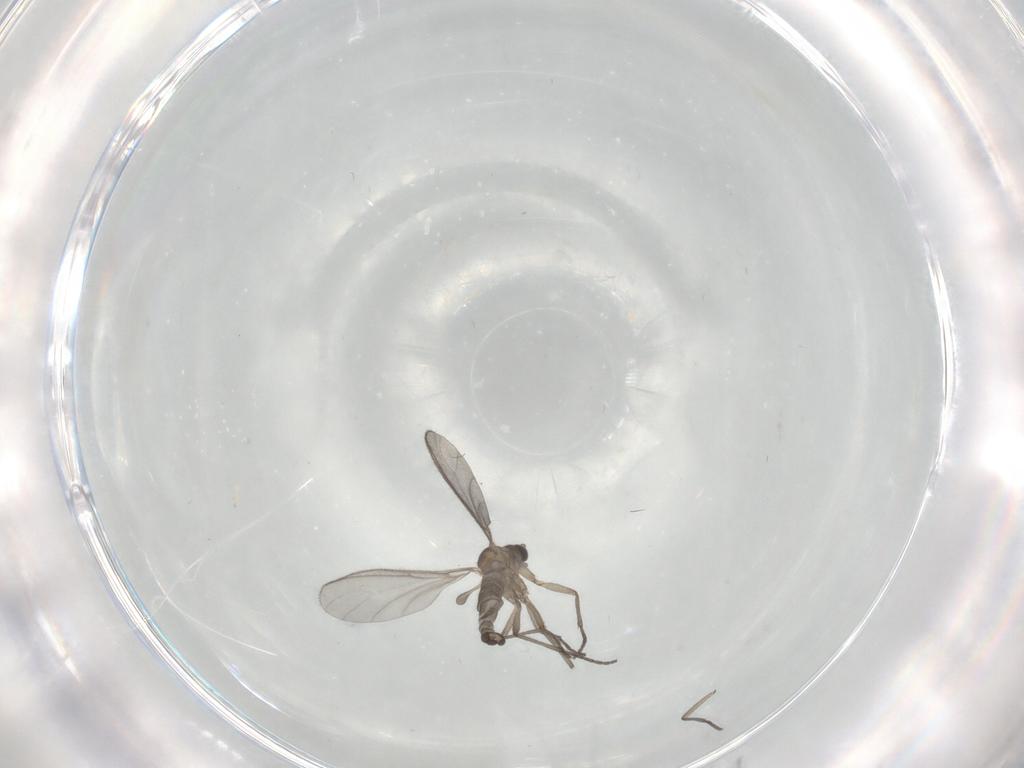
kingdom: Animalia
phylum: Arthropoda
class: Insecta
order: Diptera
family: Sciaridae
